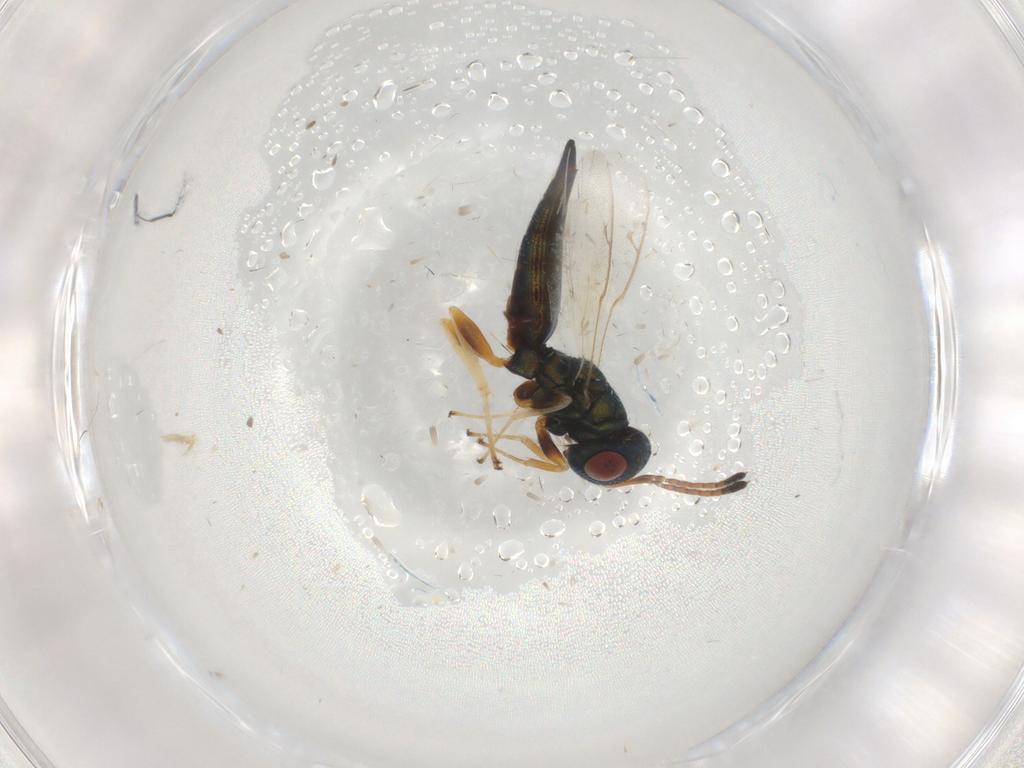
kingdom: Animalia
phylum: Arthropoda
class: Insecta
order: Hymenoptera
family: Pteromalidae
